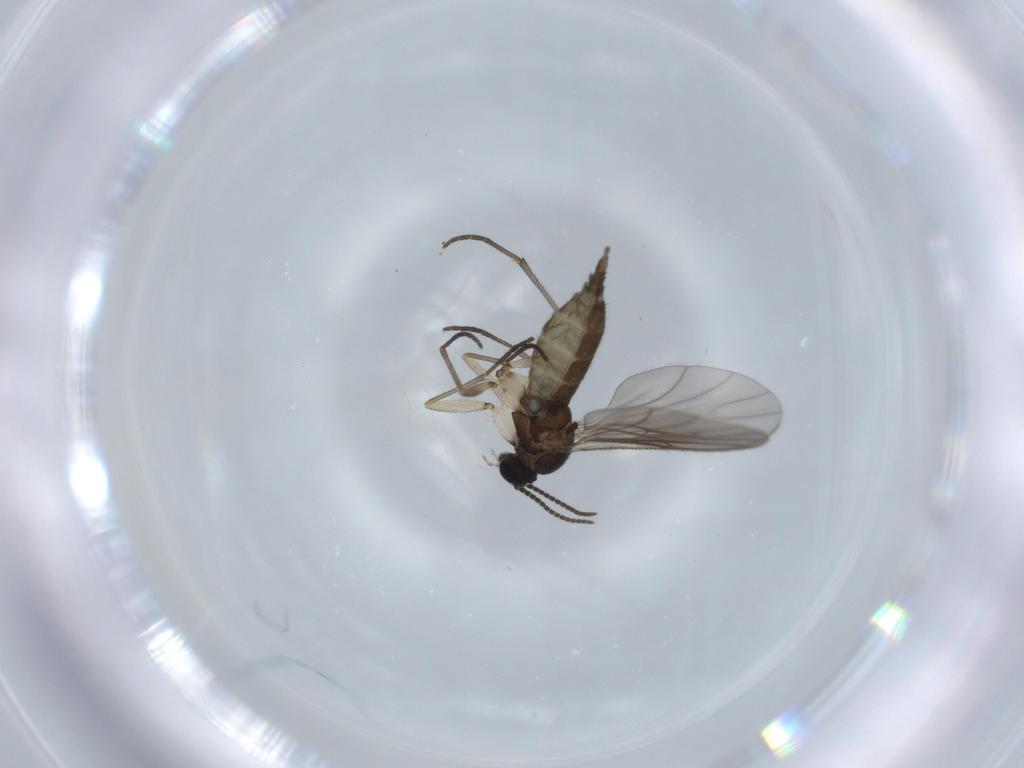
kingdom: Animalia
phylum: Arthropoda
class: Insecta
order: Diptera
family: Sciaridae
